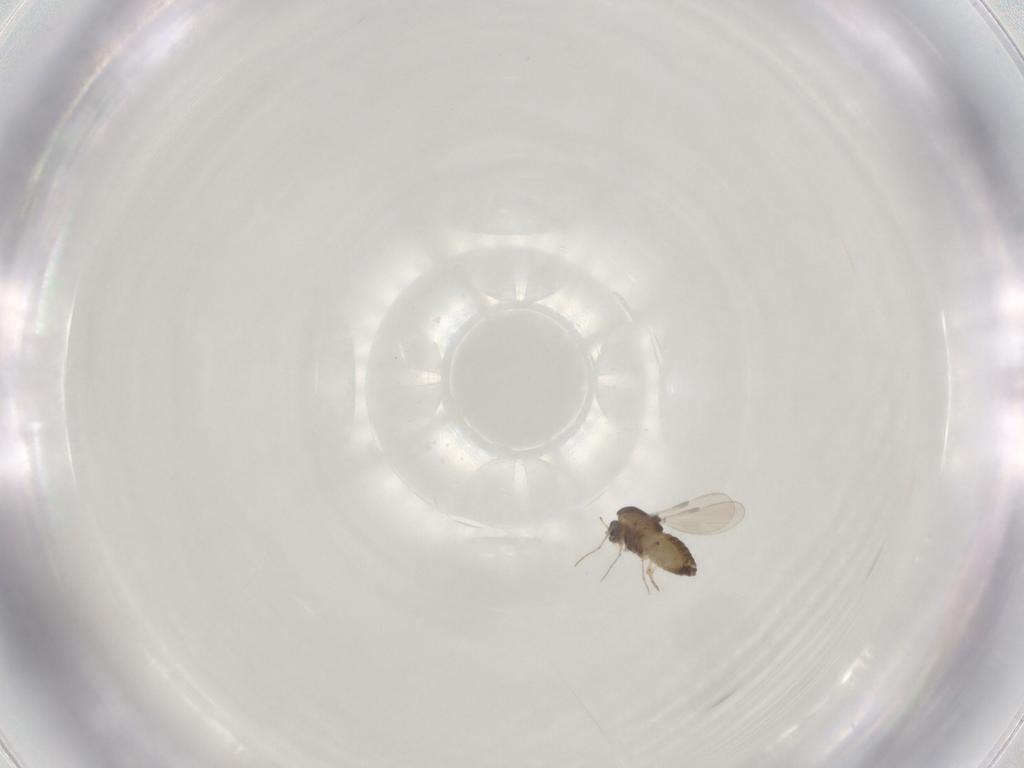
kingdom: Animalia
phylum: Arthropoda
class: Insecta
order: Diptera
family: Chironomidae
